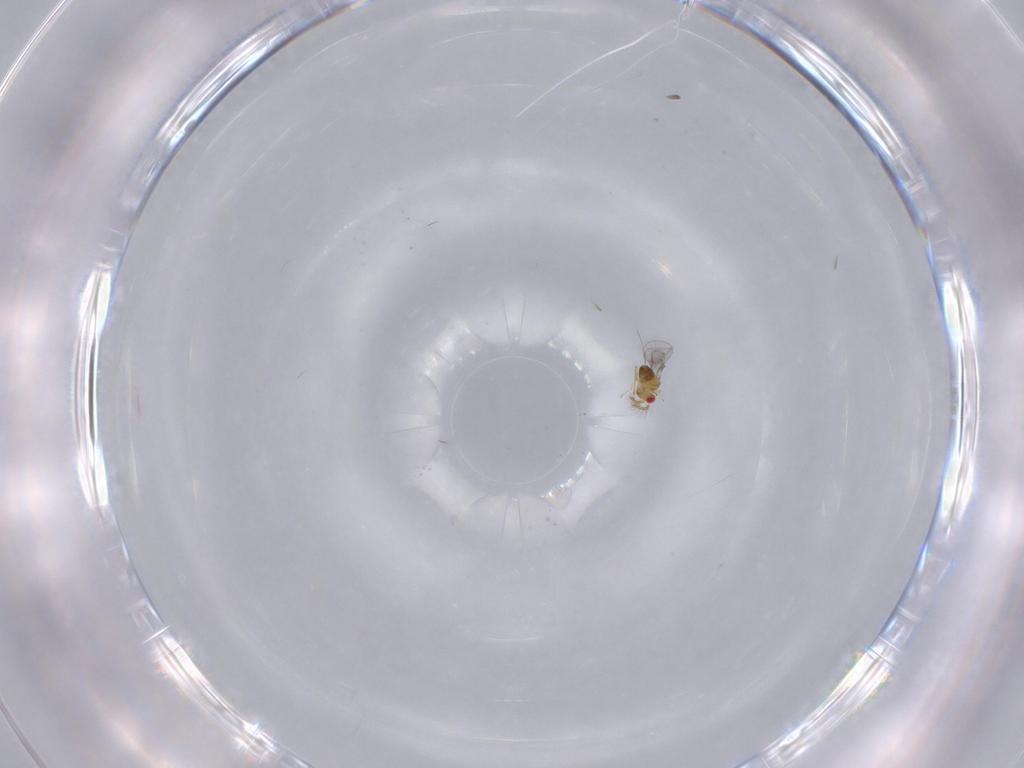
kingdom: Animalia
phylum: Arthropoda
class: Insecta
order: Hymenoptera
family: Trichogrammatidae
